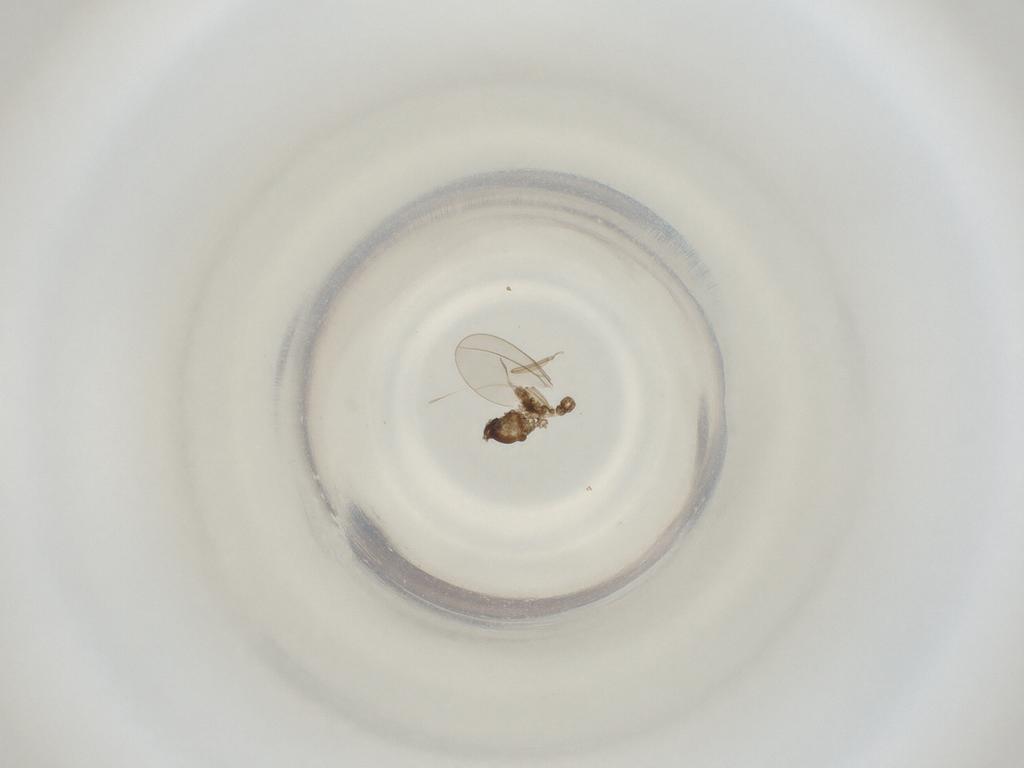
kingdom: Animalia
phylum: Arthropoda
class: Insecta
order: Diptera
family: Cecidomyiidae
